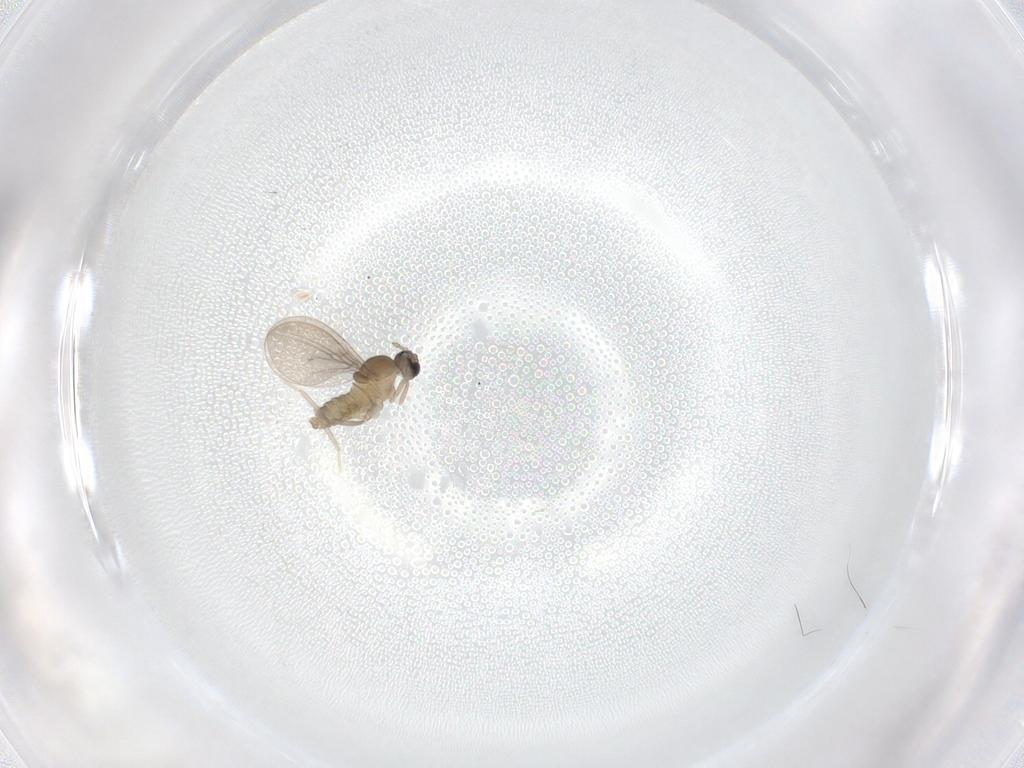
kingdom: Animalia
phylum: Arthropoda
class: Insecta
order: Diptera
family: Cecidomyiidae
